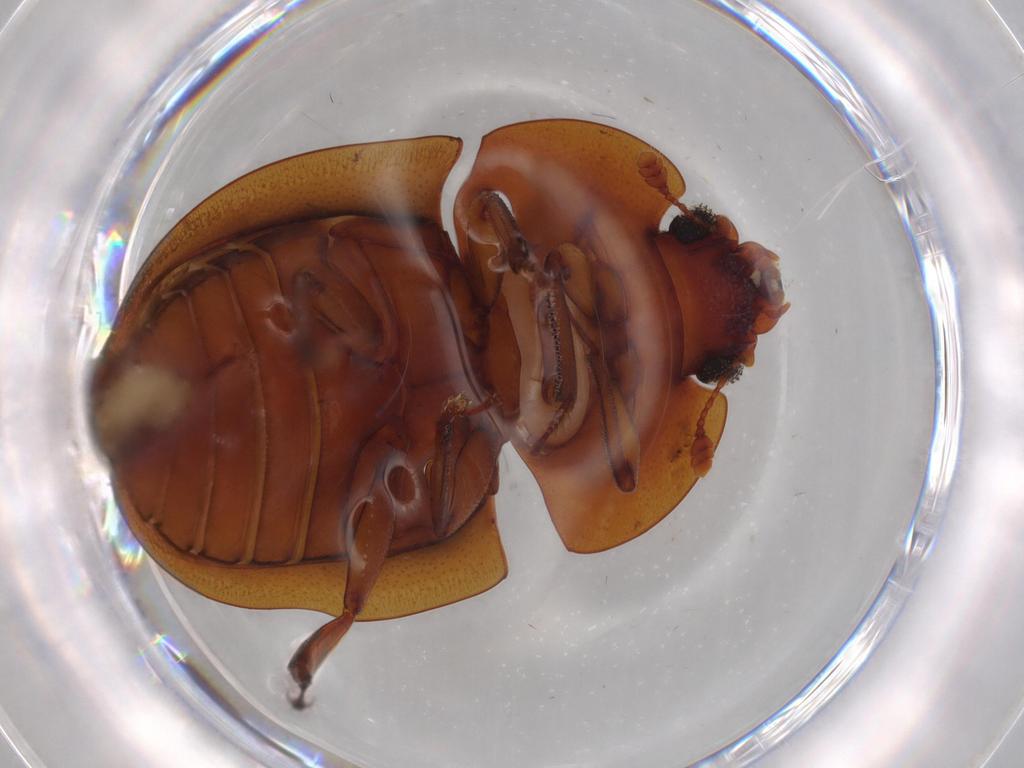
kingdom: Animalia
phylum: Arthropoda
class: Insecta
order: Coleoptera
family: Nitidulidae
